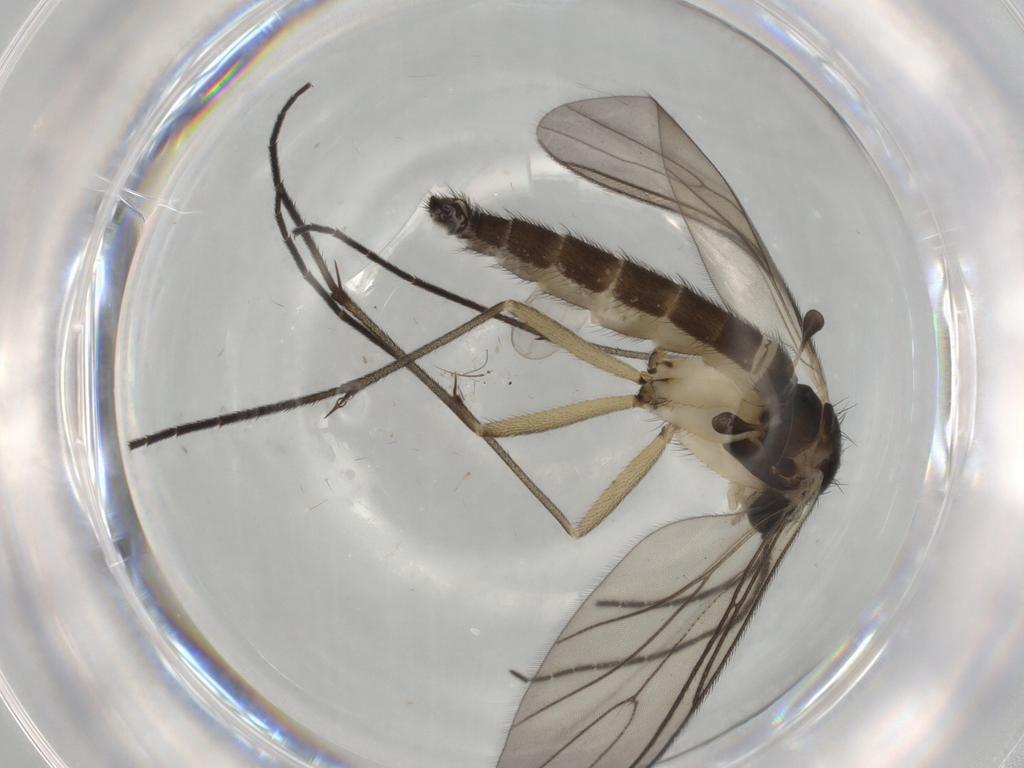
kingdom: Animalia
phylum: Arthropoda
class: Insecta
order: Diptera
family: Sciaridae
